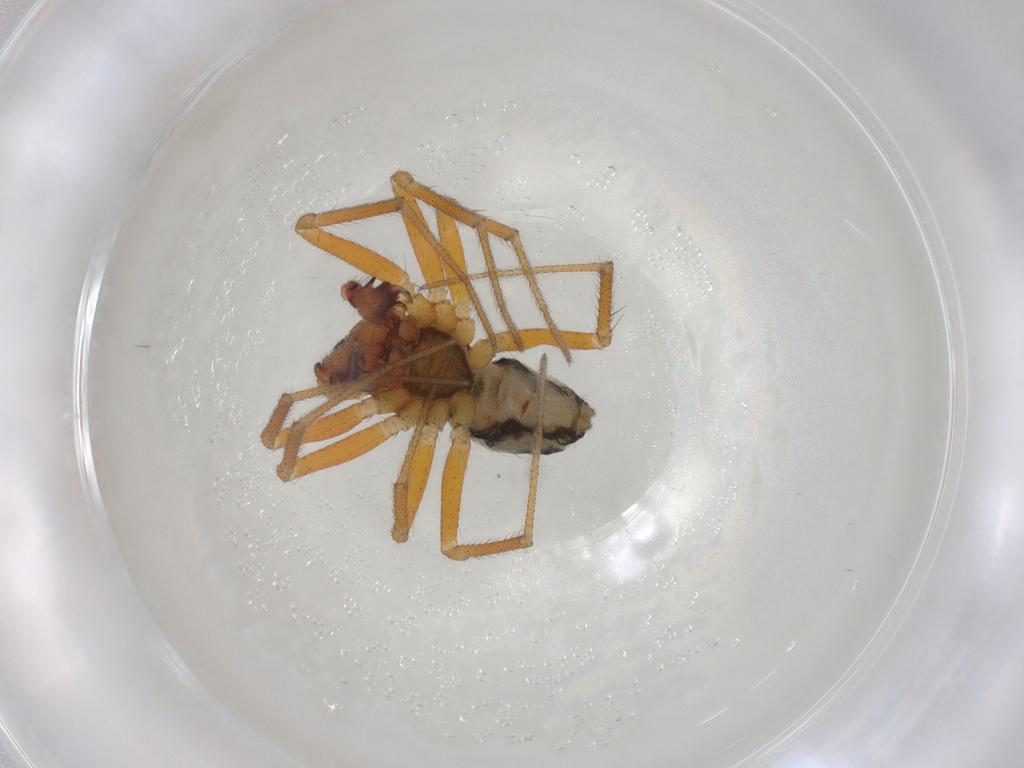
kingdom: Animalia
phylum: Arthropoda
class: Arachnida
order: Araneae
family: Linyphiidae
